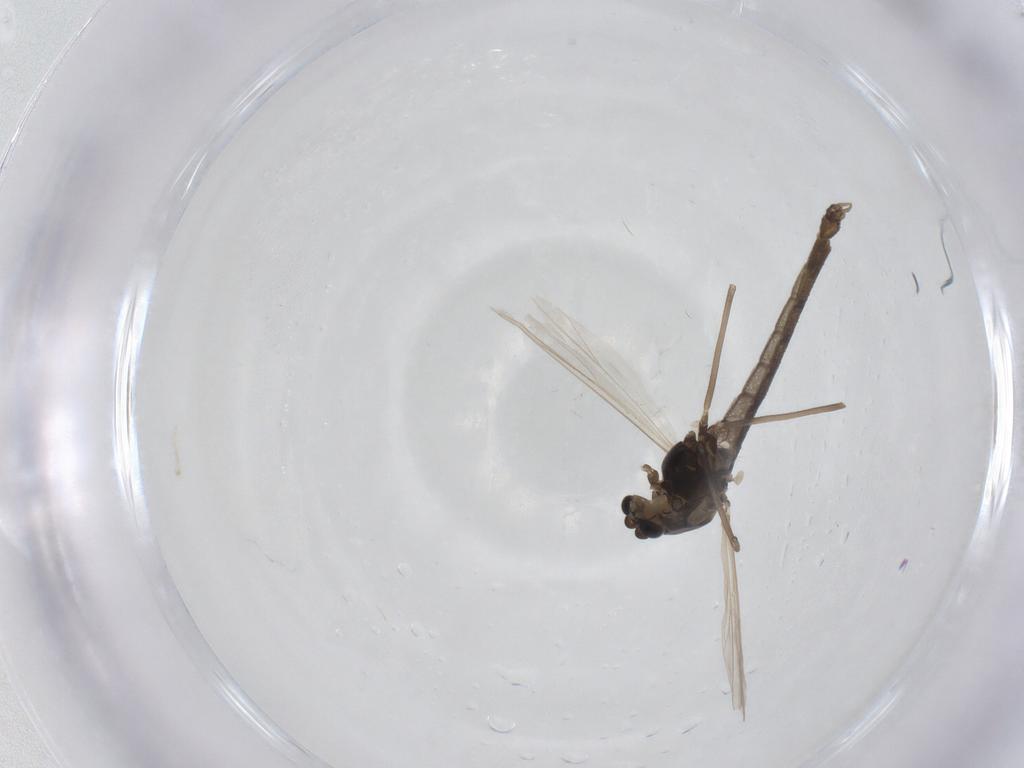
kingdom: Animalia
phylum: Arthropoda
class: Insecta
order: Diptera
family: Chironomidae
